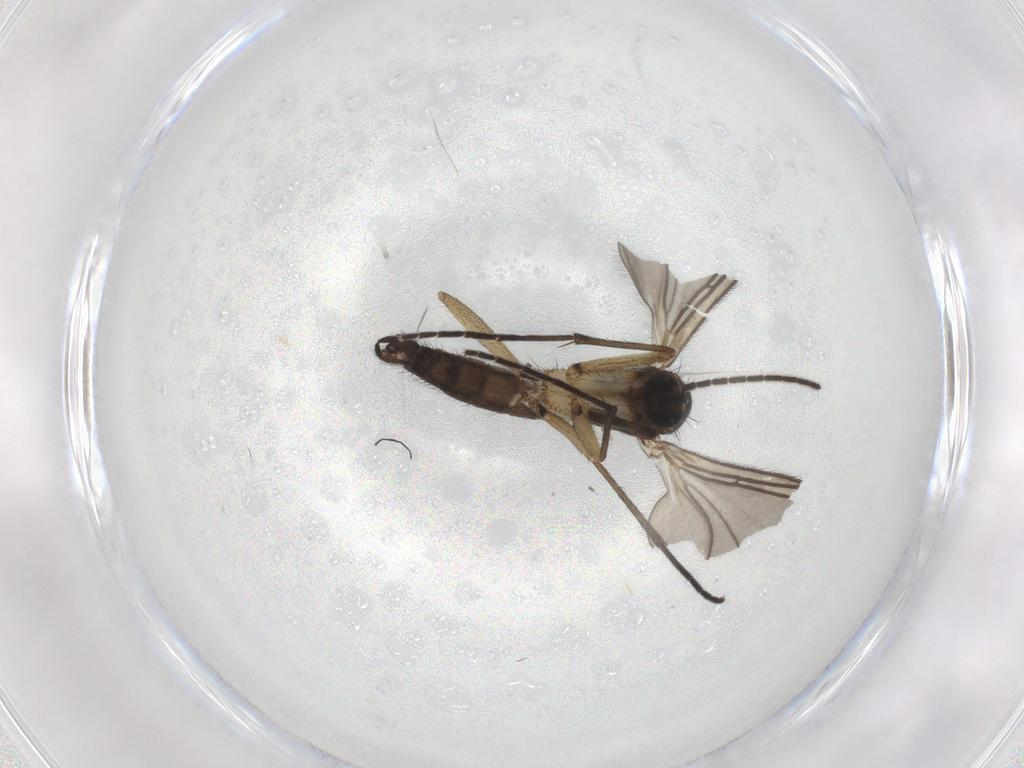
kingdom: Animalia
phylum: Arthropoda
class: Insecta
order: Diptera
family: Sciaridae
